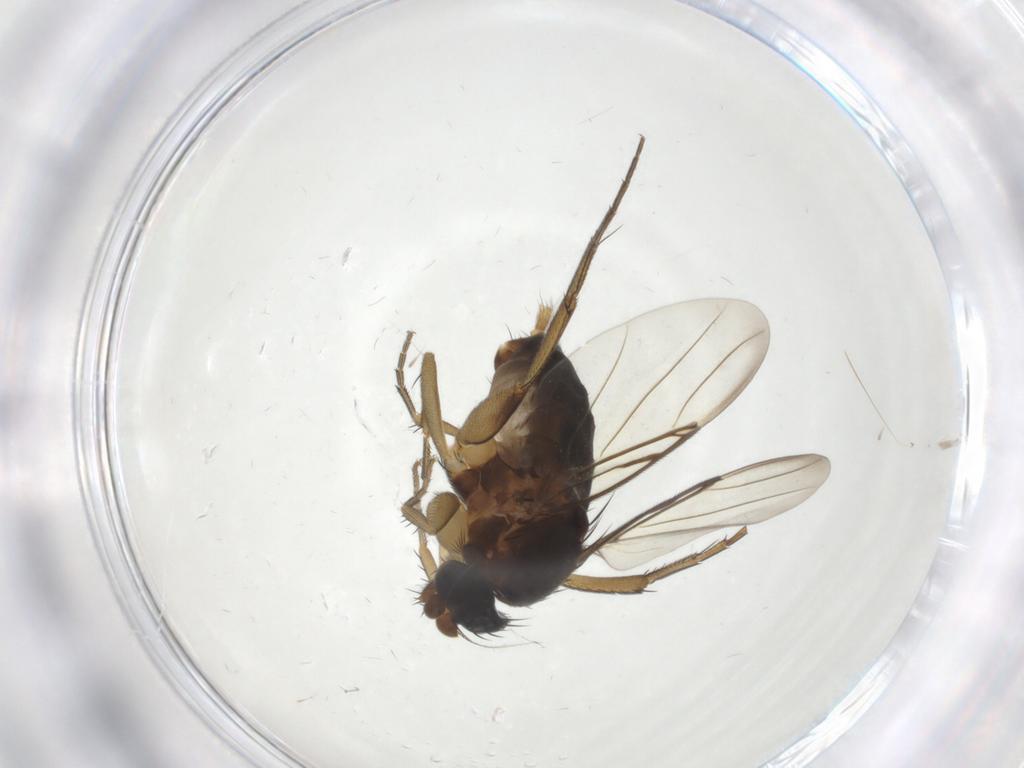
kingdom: Animalia
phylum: Arthropoda
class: Insecta
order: Diptera
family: Phoridae
